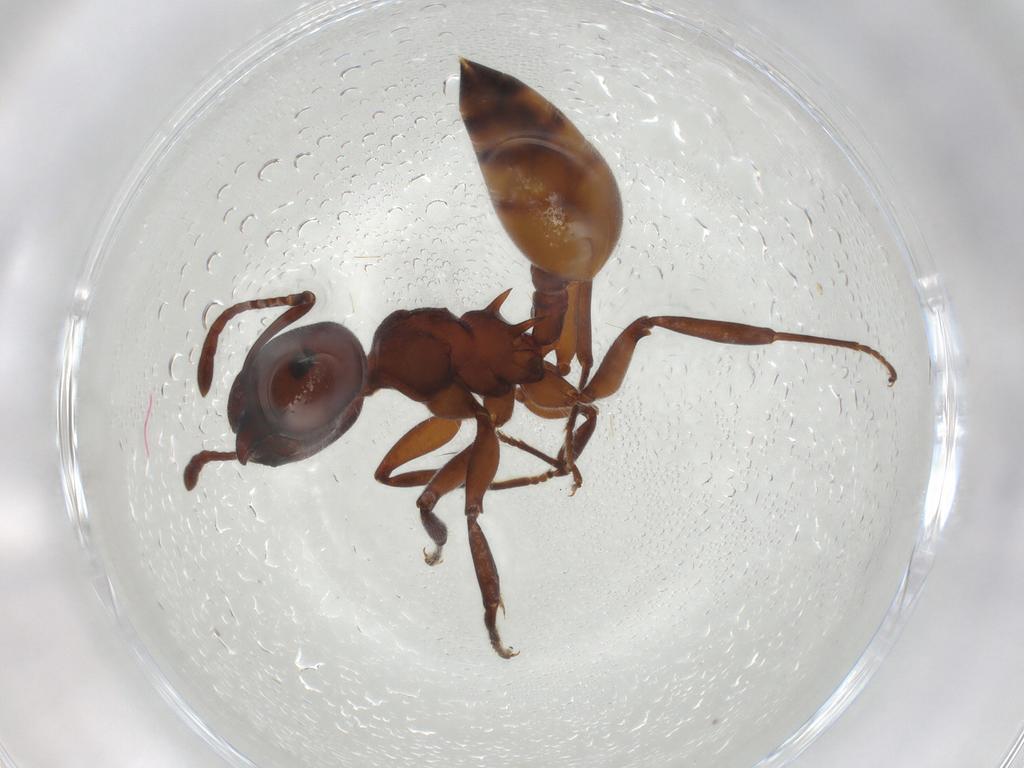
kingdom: Animalia
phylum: Arthropoda
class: Insecta
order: Hymenoptera
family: Formicidae
